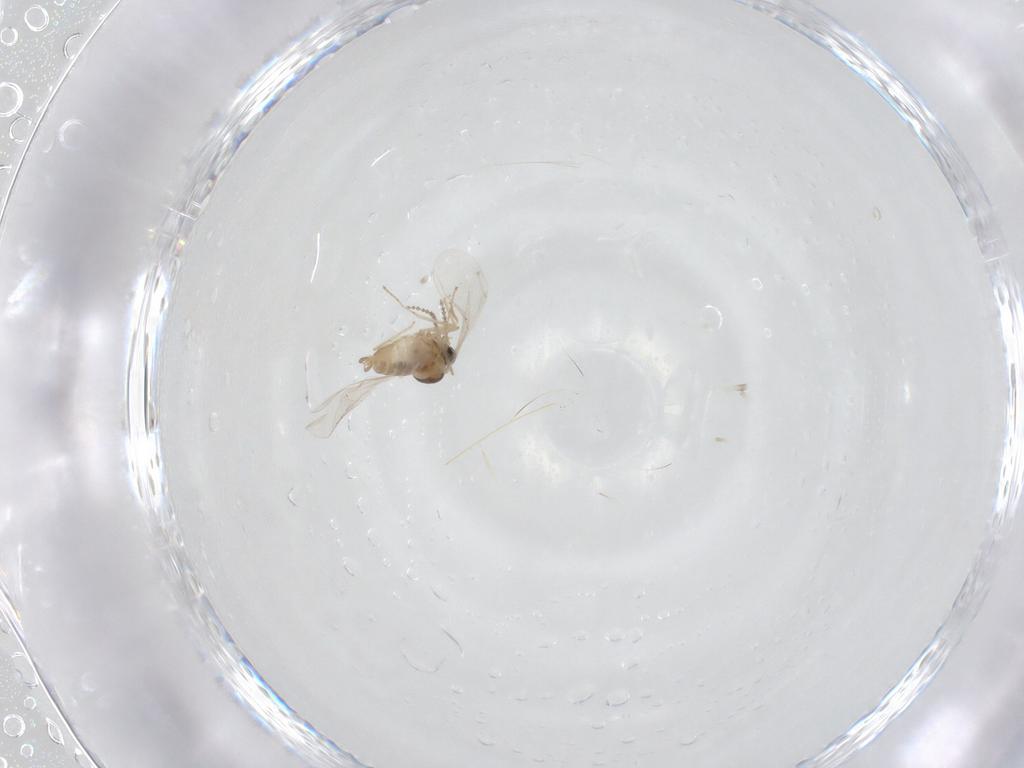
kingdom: Animalia
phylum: Arthropoda
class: Insecta
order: Diptera
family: Cecidomyiidae
